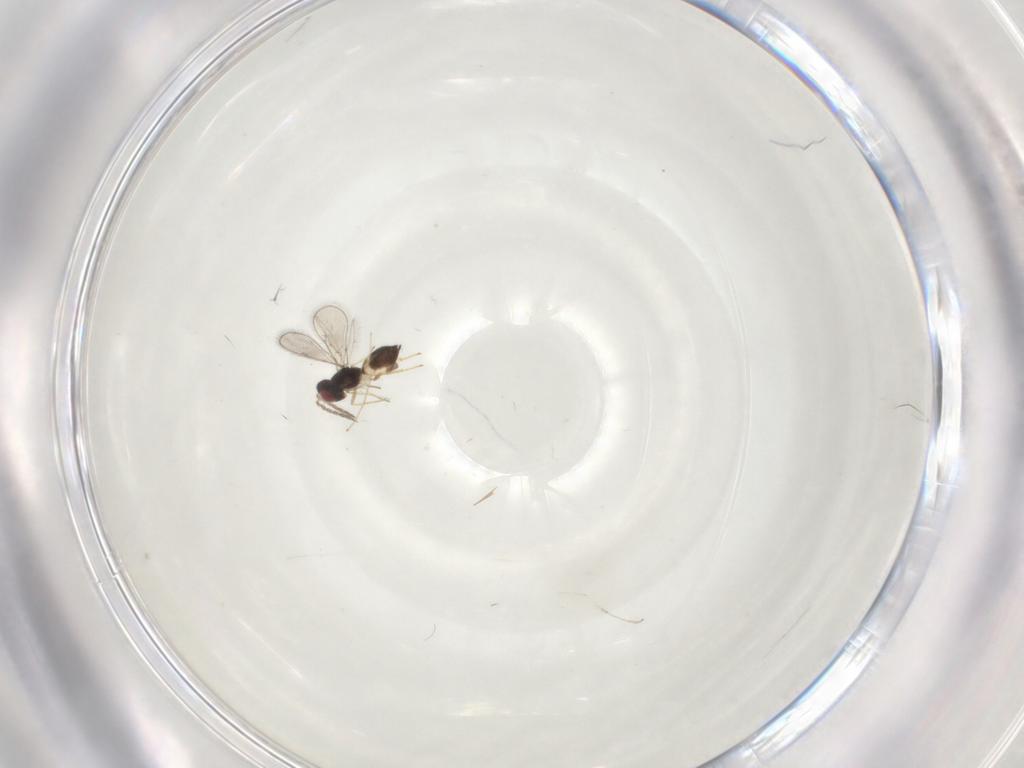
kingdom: Animalia
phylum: Arthropoda
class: Insecta
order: Hymenoptera
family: Eulophidae
